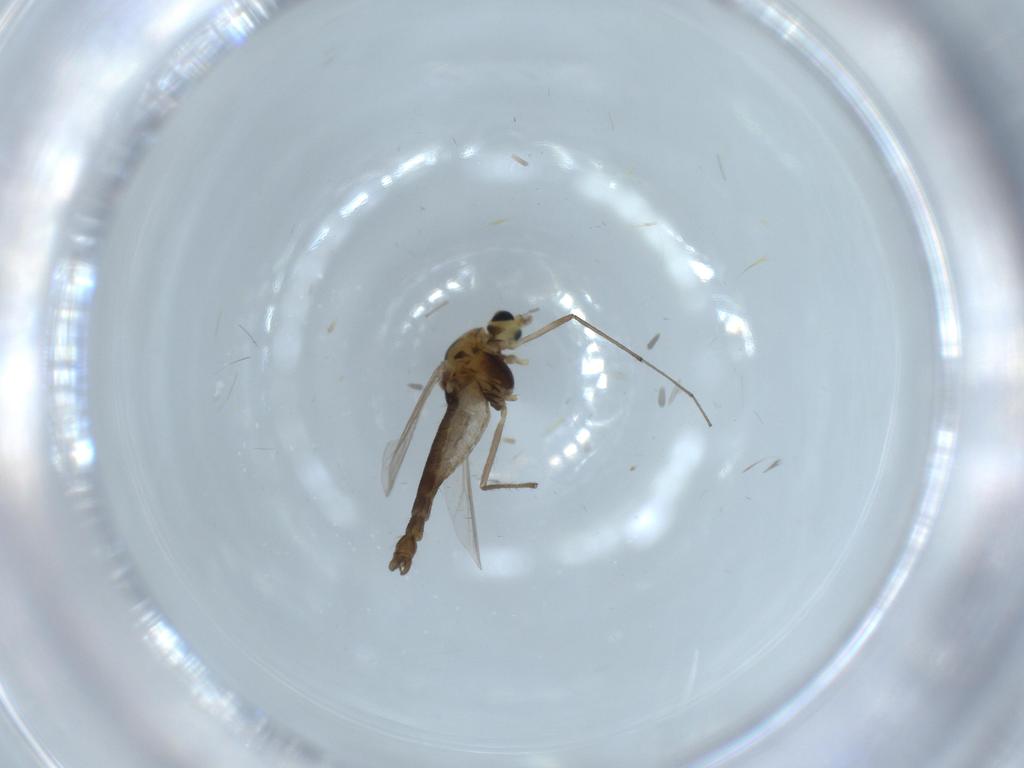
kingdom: Animalia
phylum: Arthropoda
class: Insecta
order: Diptera
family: Chironomidae
